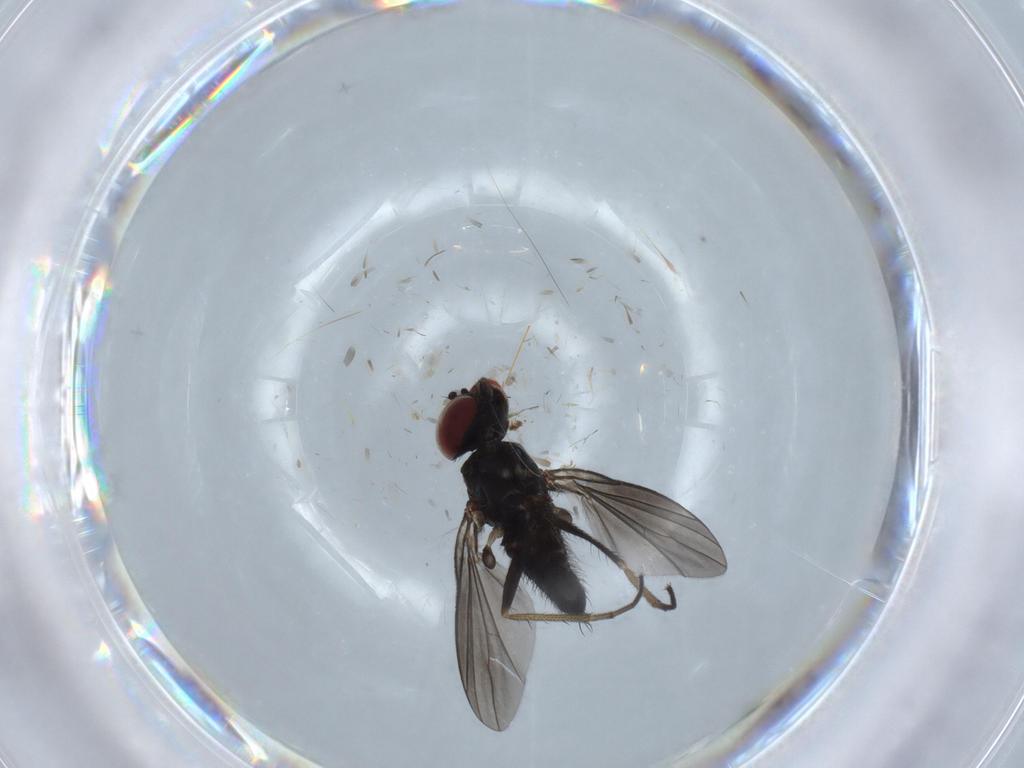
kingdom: Animalia
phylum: Arthropoda
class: Insecta
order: Diptera
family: Dolichopodidae
